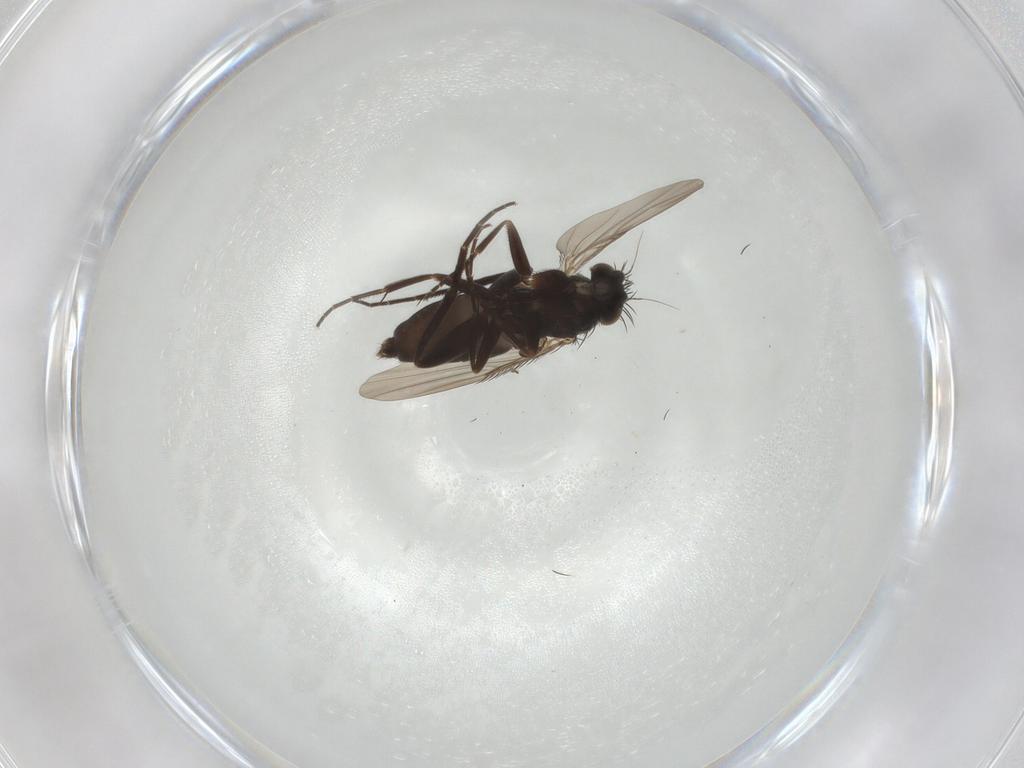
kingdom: Animalia
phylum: Arthropoda
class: Insecta
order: Diptera
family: Phoridae
